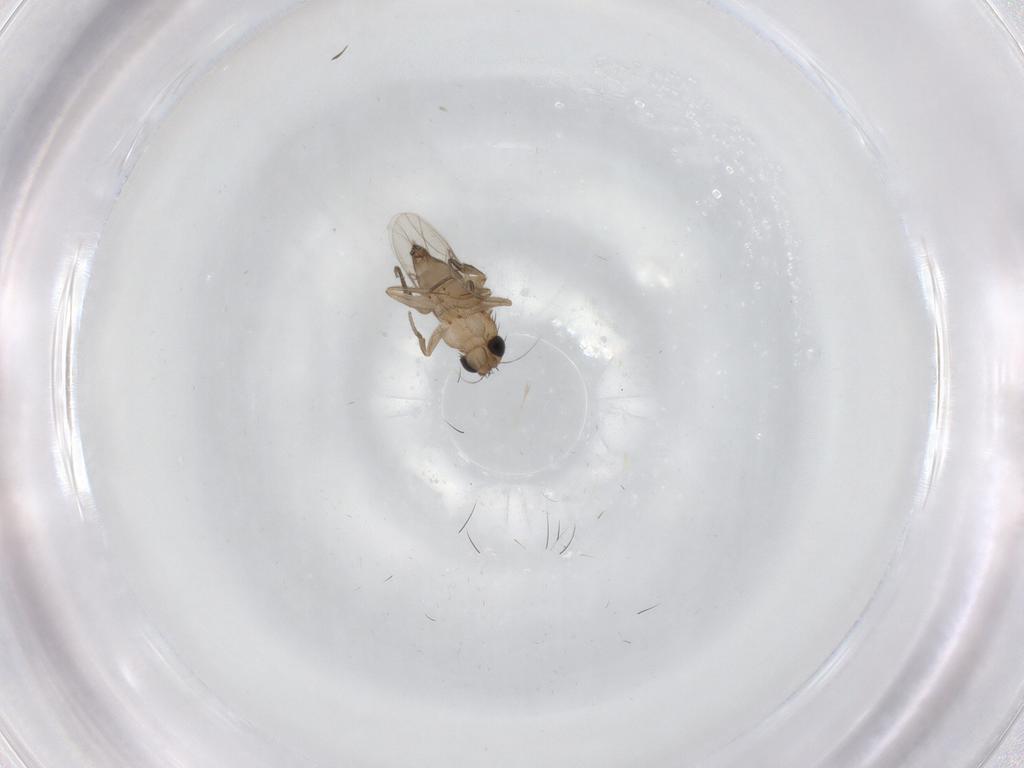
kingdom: Animalia
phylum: Arthropoda
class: Insecta
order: Diptera
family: Phoridae
